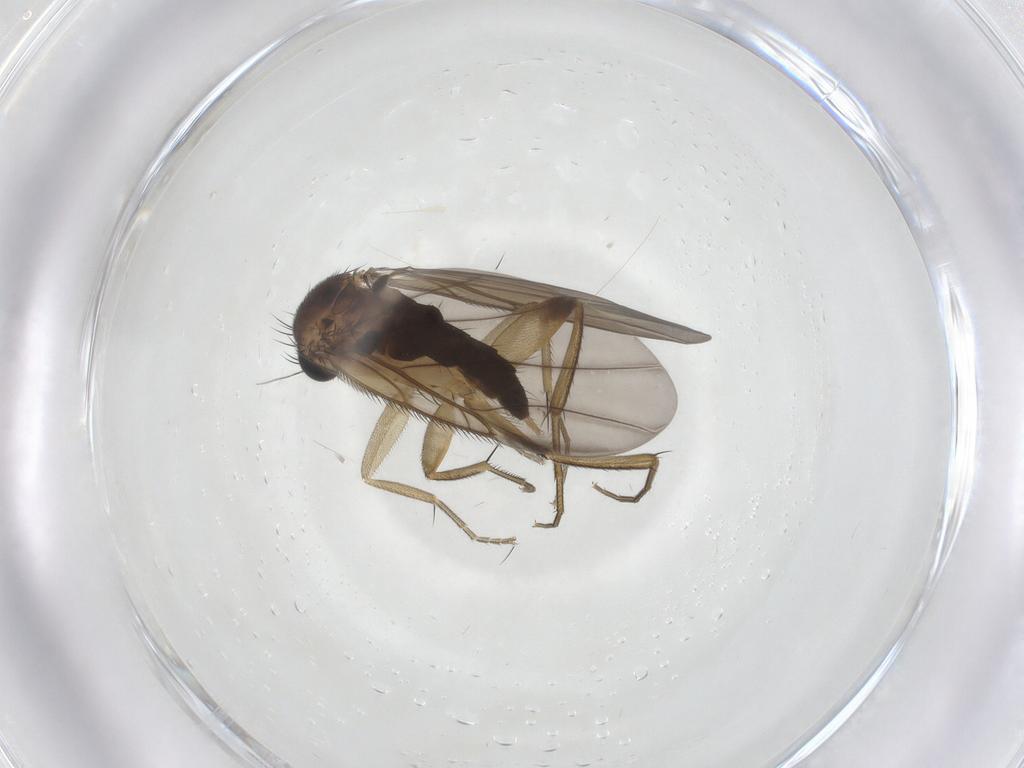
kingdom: Animalia
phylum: Arthropoda
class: Insecta
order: Diptera
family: Phoridae
